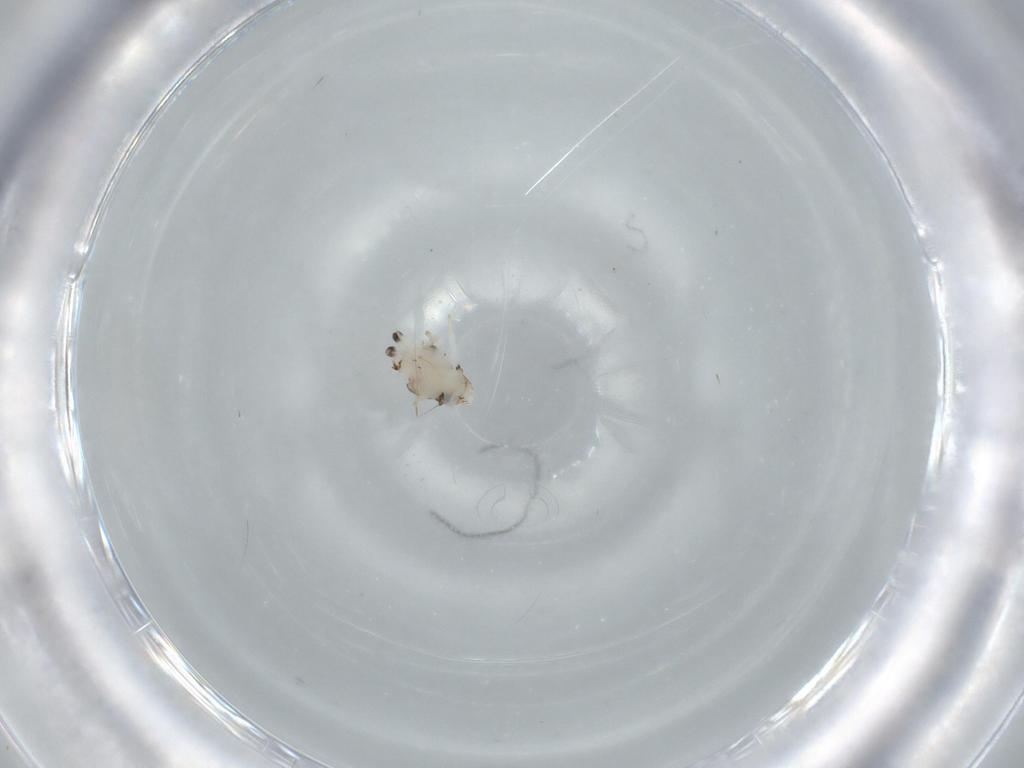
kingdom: Animalia
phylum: Arthropoda
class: Insecta
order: Hemiptera
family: Nogodinidae
